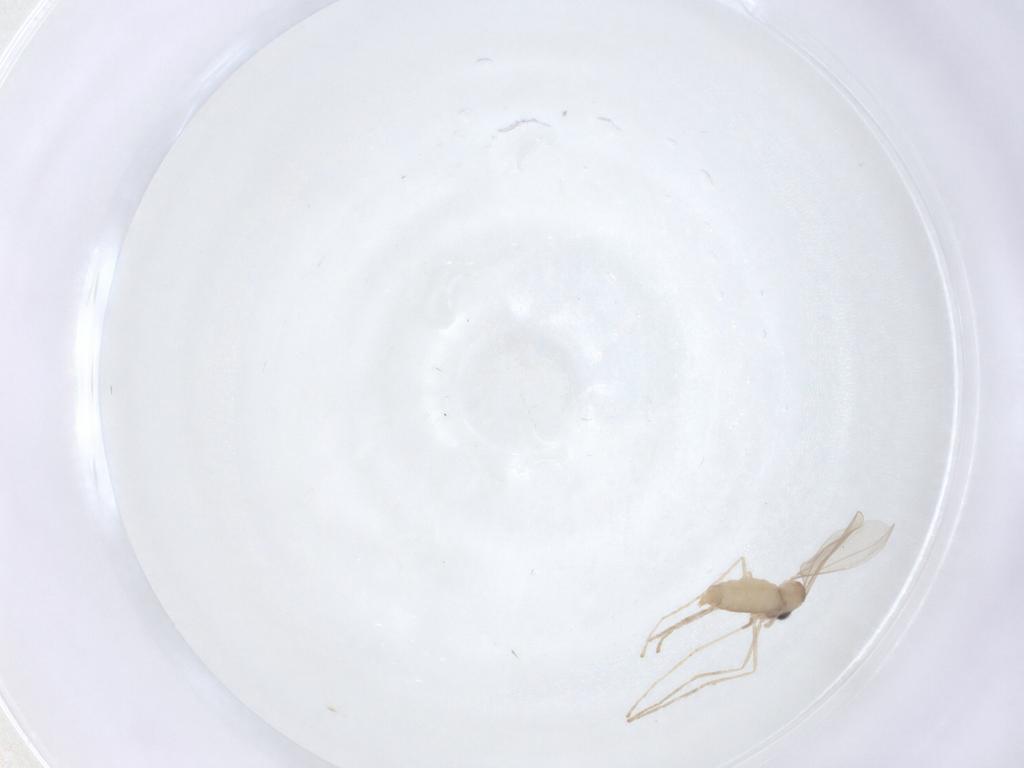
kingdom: Animalia
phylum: Arthropoda
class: Insecta
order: Diptera
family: Cecidomyiidae
